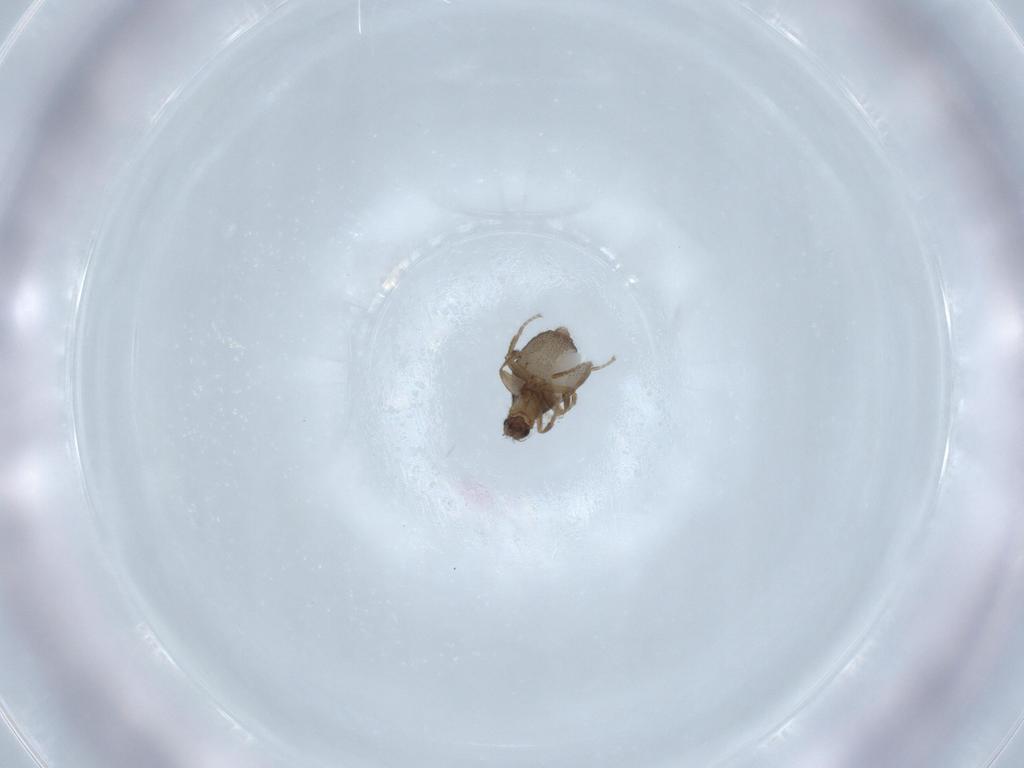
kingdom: Animalia
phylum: Arthropoda
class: Insecta
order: Diptera
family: Phoridae
